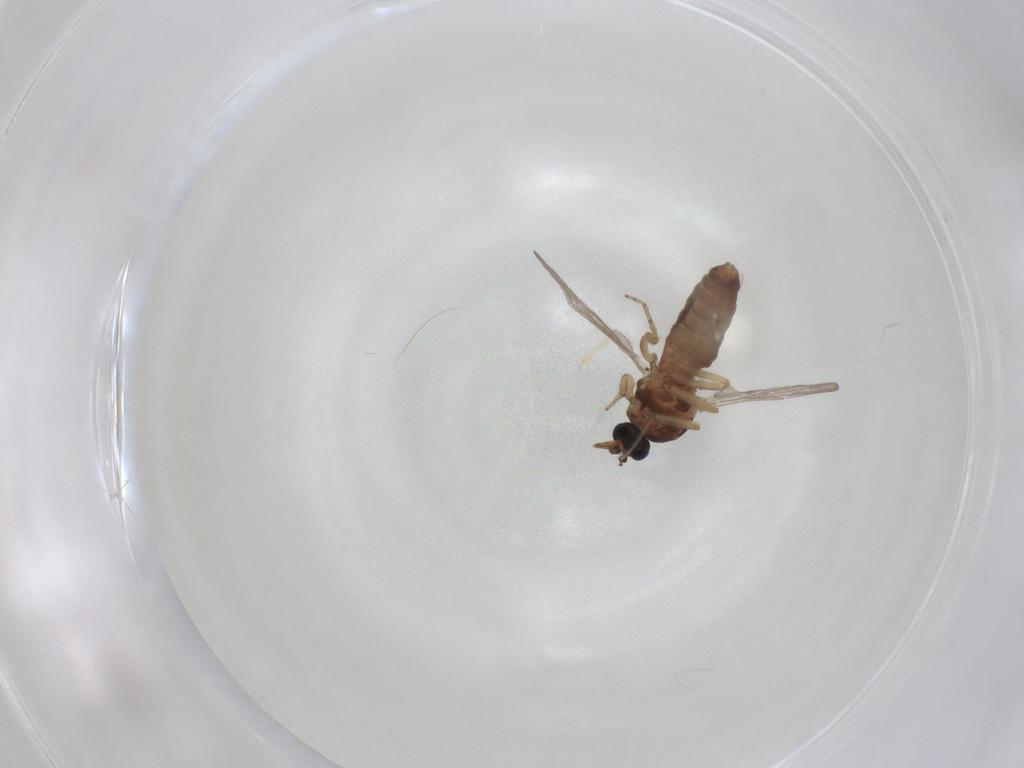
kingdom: Animalia
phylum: Arthropoda
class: Insecta
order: Diptera
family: Ceratopogonidae
